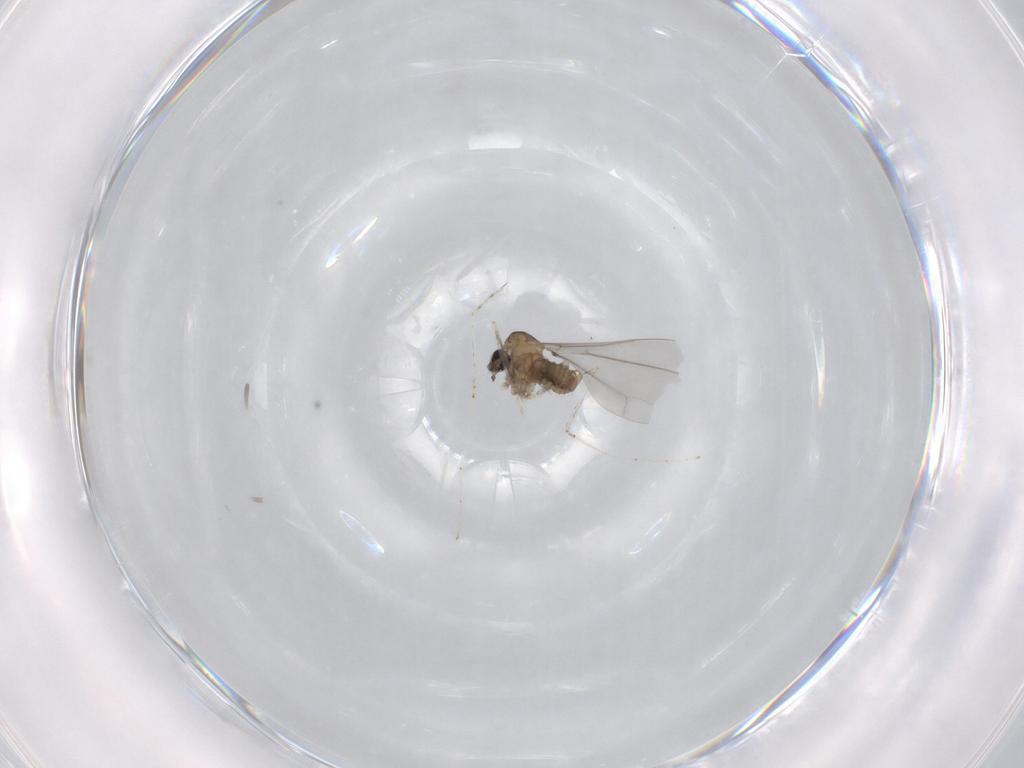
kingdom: Animalia
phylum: Arthropoda
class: Insecta
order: Diptera
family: Cecidomyiidae
